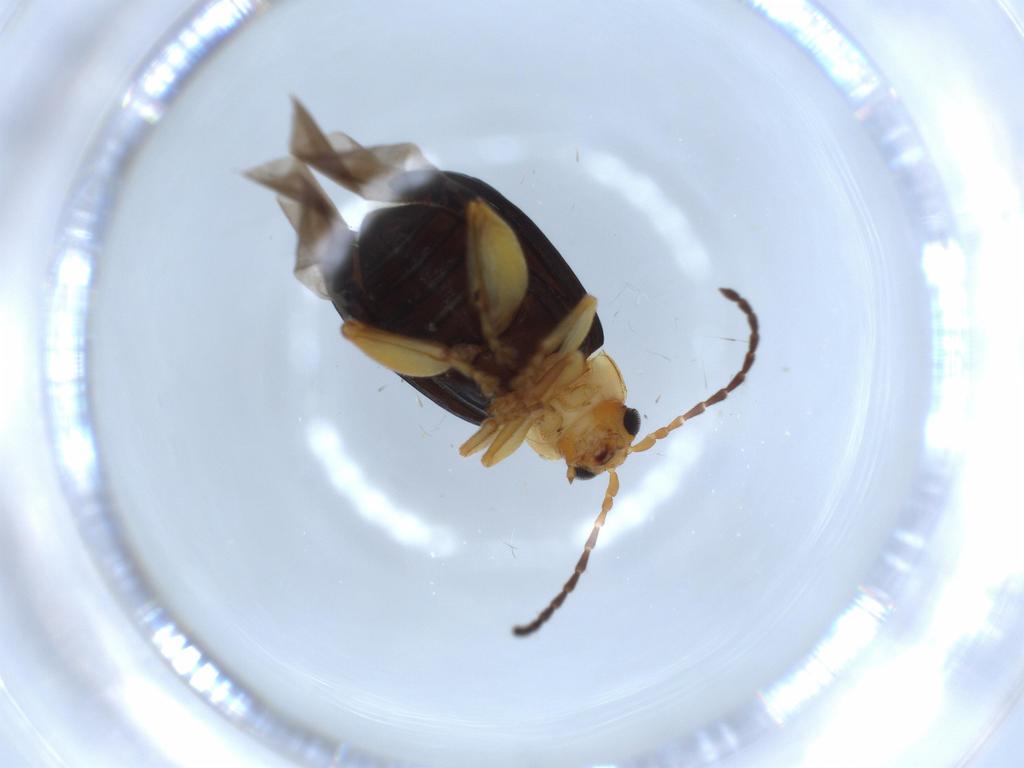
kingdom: Animalia
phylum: Arthropoda
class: Insecta
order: Coleoptera
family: Chrysomelidae
